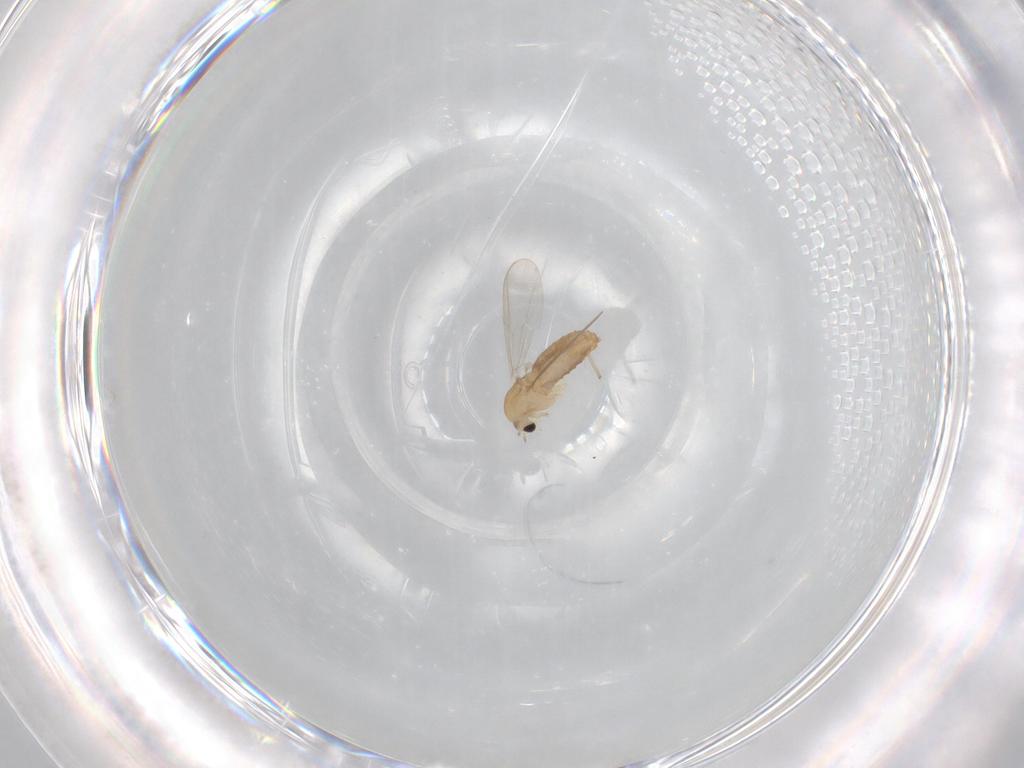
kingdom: Animalia
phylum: Arthropoda
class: Insecta
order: Diptera
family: Chironomidae
